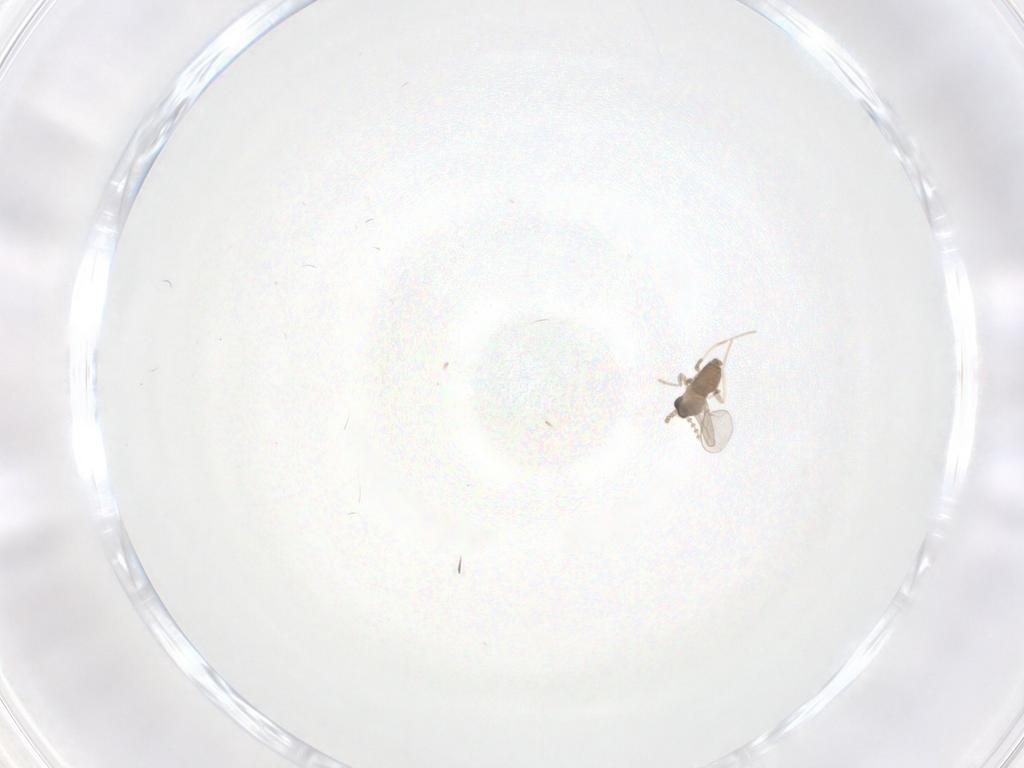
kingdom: Animalia
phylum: Arthropoda
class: Insecta
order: Diptera
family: Cecidomyiidae
